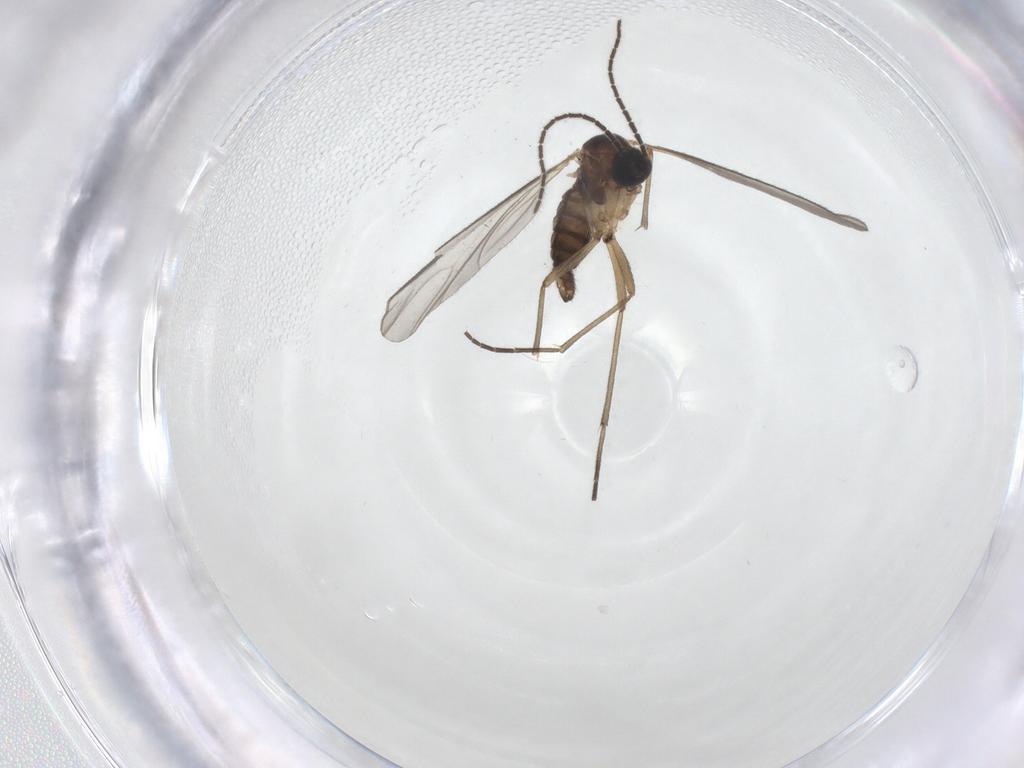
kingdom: Animalia
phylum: Arthropoda
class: Insecta
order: Diptera
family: Sciaridae
